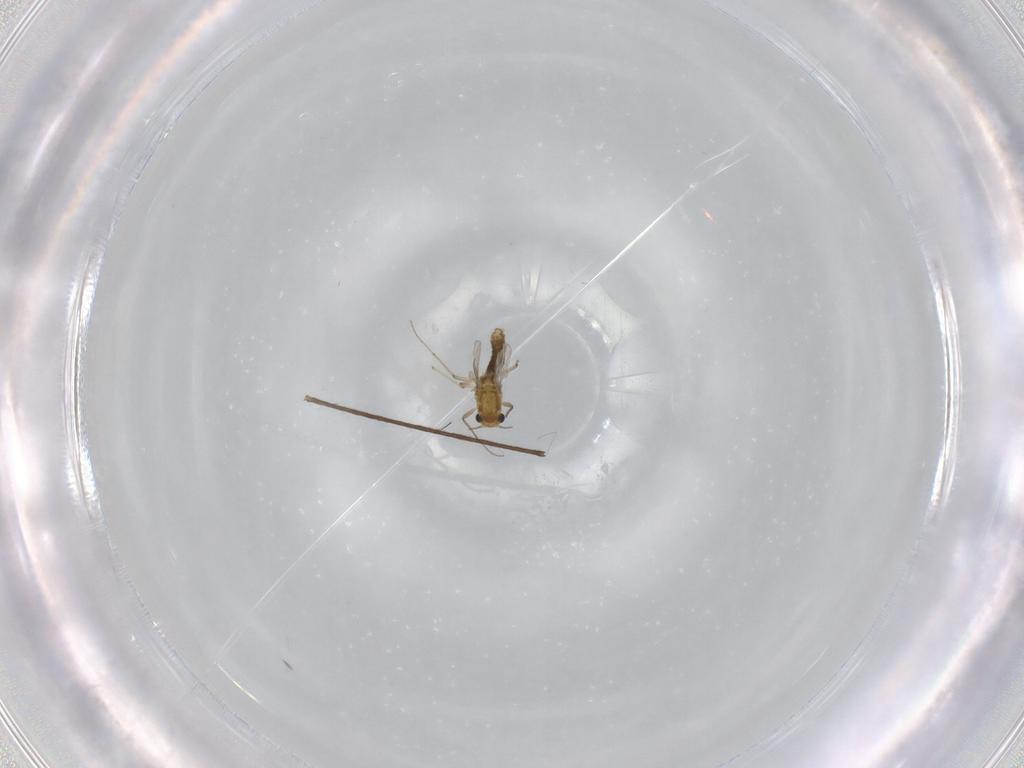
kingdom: Animalia
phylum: Arthropoda
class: Insecta
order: Diptera
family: Chironomidae
